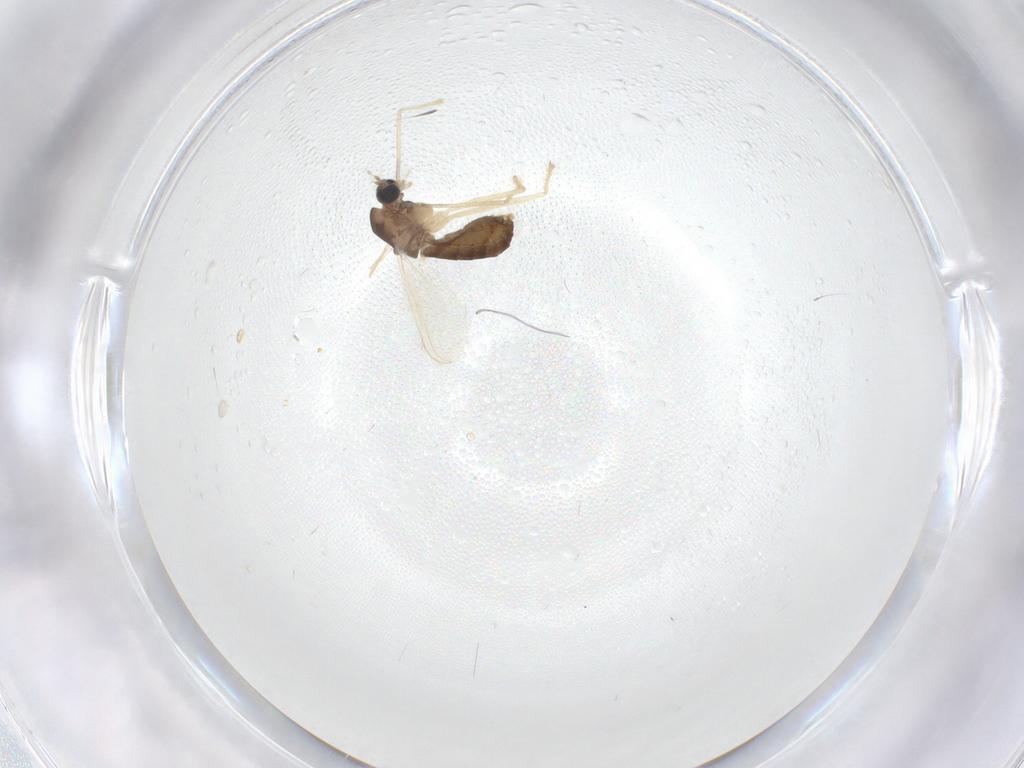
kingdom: Animalia
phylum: Arthropoda
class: Insecta
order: Diptera
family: Chironomidae
